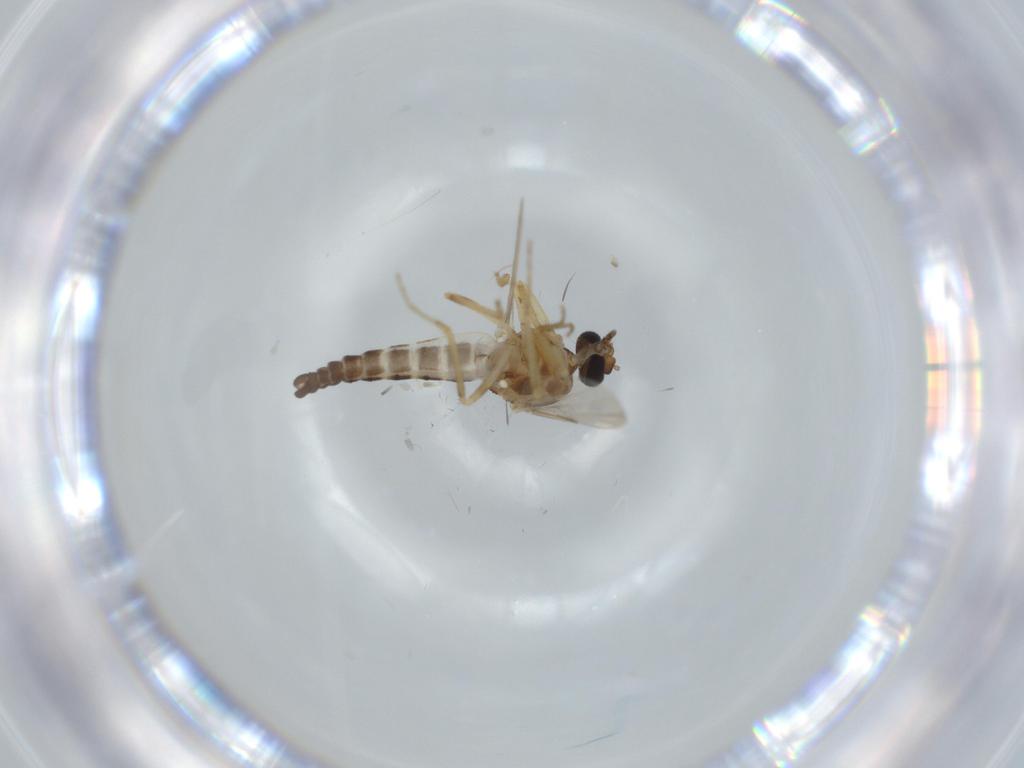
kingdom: Animalia
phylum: Arthropoda
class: Insecta
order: Diptera
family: Ceratopogonidae
